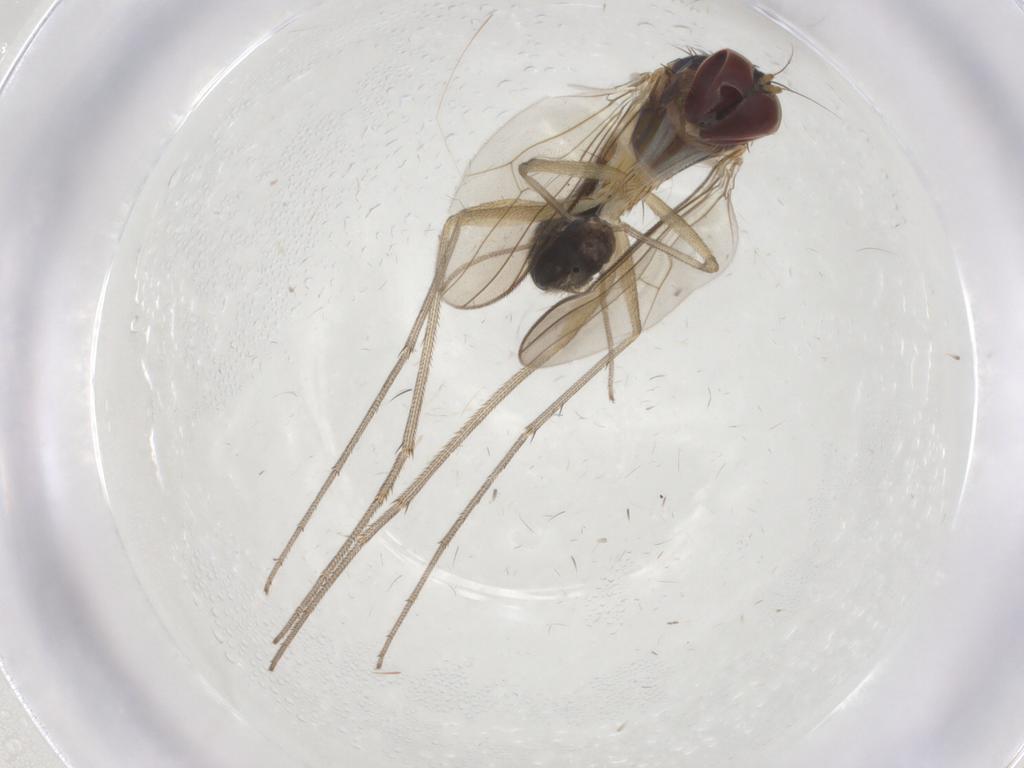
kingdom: Animalia
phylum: Arthropoda
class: Insecta
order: Diptera
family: Dolichopodidae
